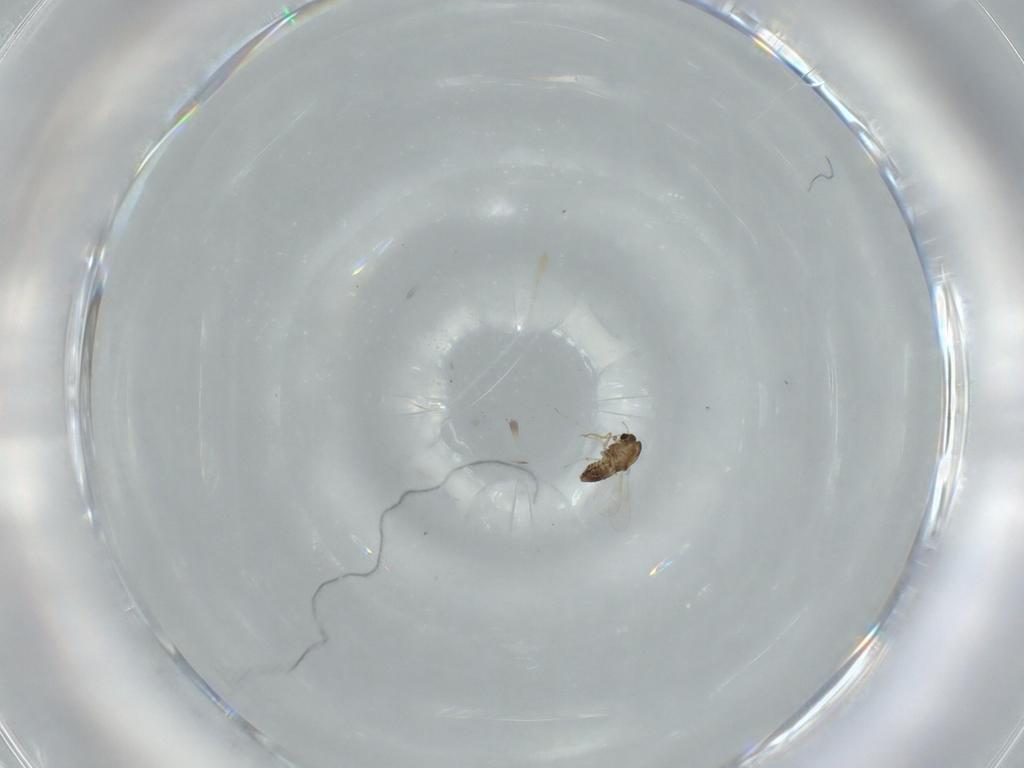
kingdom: Animalia
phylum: Arthropoda
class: Insecta
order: Diptera
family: Chironomidae
